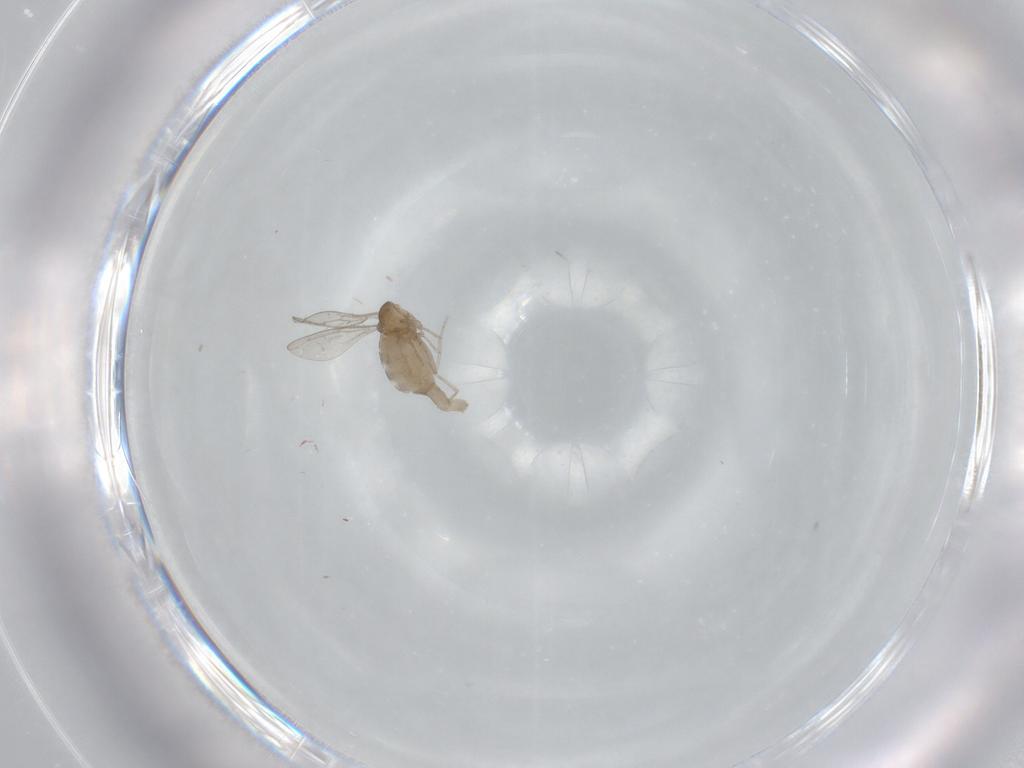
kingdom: Animalia
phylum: Arthropoda
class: Insecta
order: Diptera
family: Cecidomyiidae
